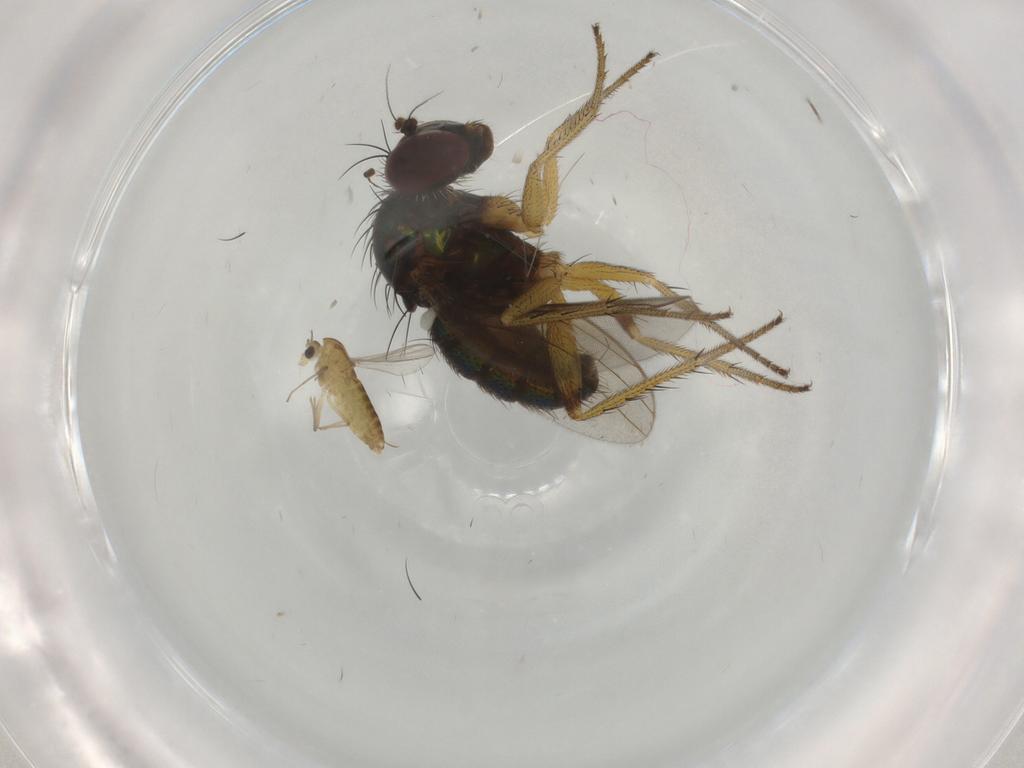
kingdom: Animalia
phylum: Arthropoda
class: Insecta
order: Diptera
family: Dolichopodidae
